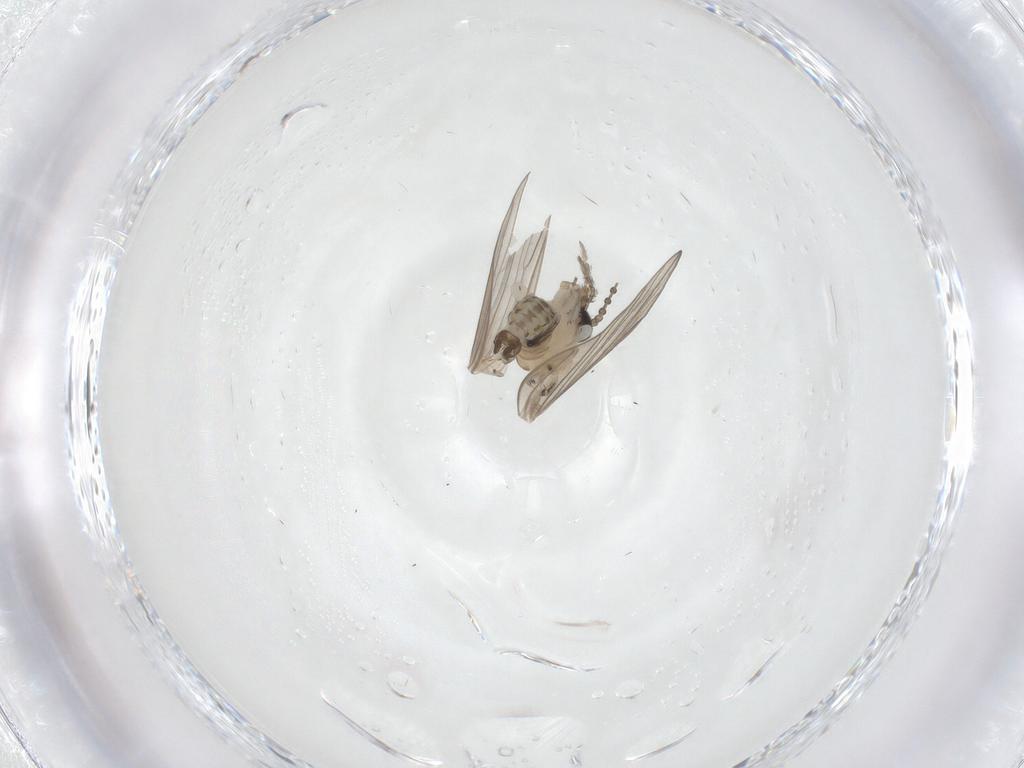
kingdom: Animalia
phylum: Arthropoda
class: Insecta
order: Diptera
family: Psychodidae
